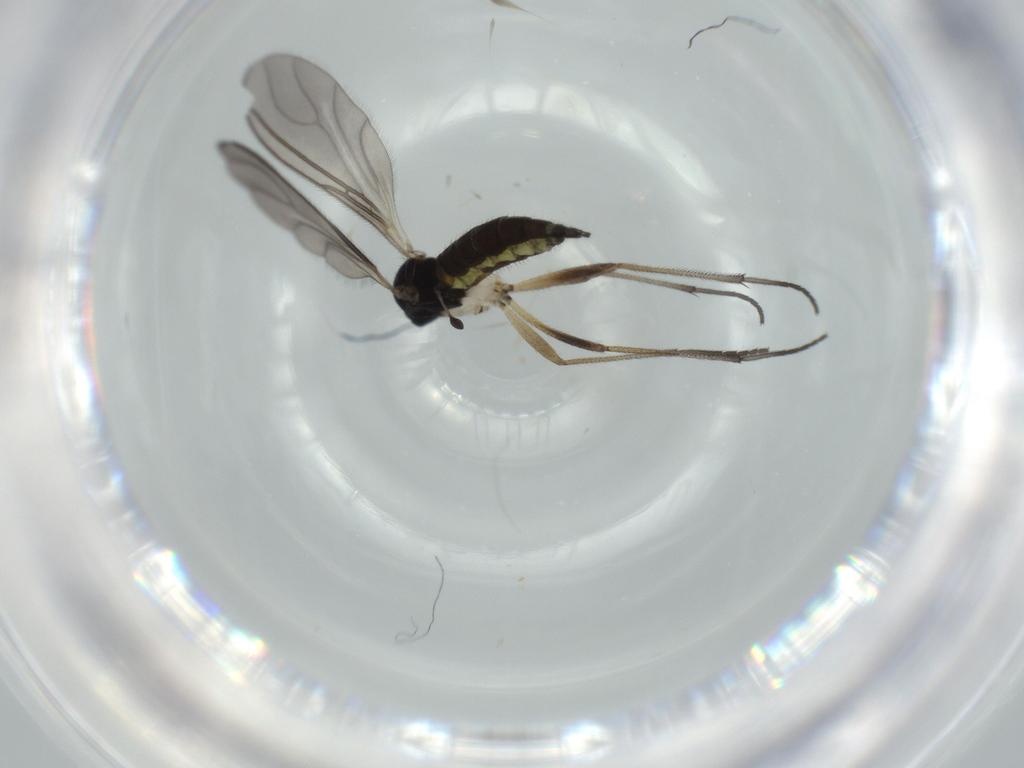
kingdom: Animalia
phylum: Arthropoda
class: Insecta
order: Diptera
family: Sciaridae
